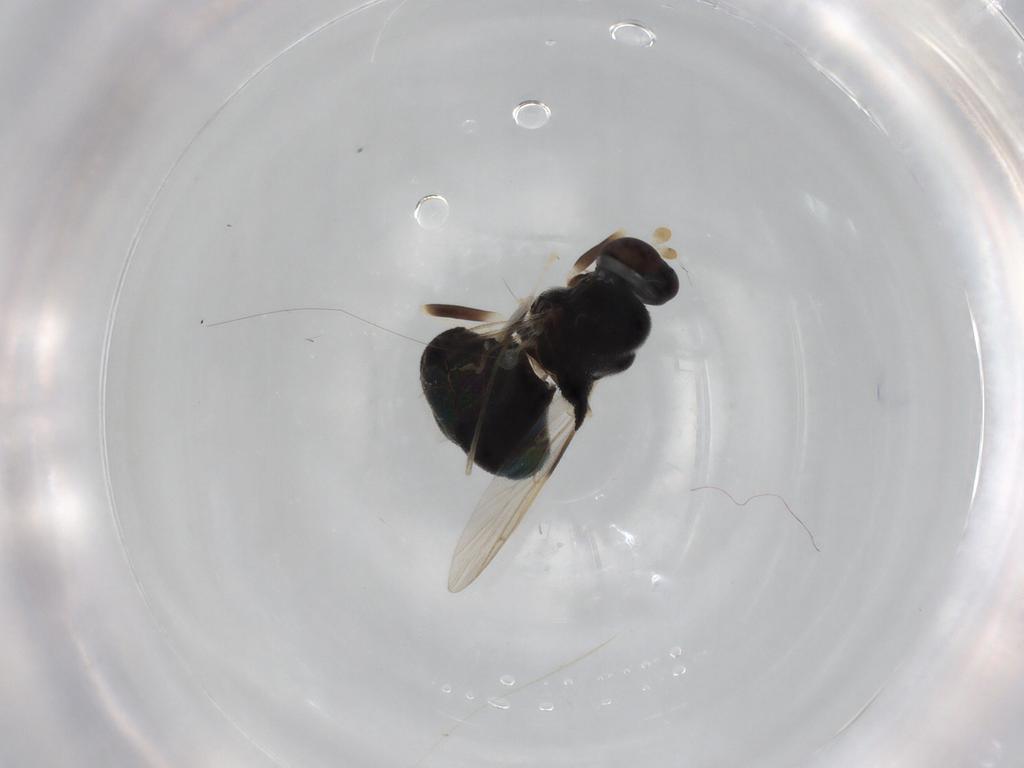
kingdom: Animalia
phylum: Arthropoda
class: Insecta
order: Diptera
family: Stratiomyidae
